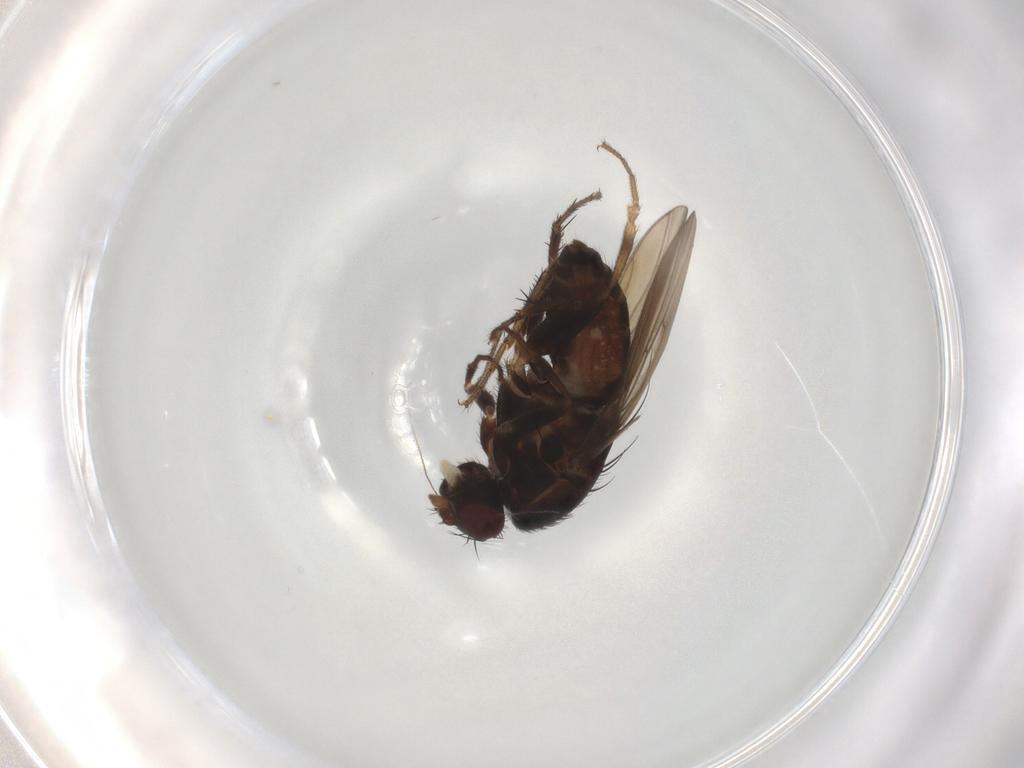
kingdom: Animalia
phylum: Arthropoda
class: Insecta
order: Diptera
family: Sphaeroceridae
